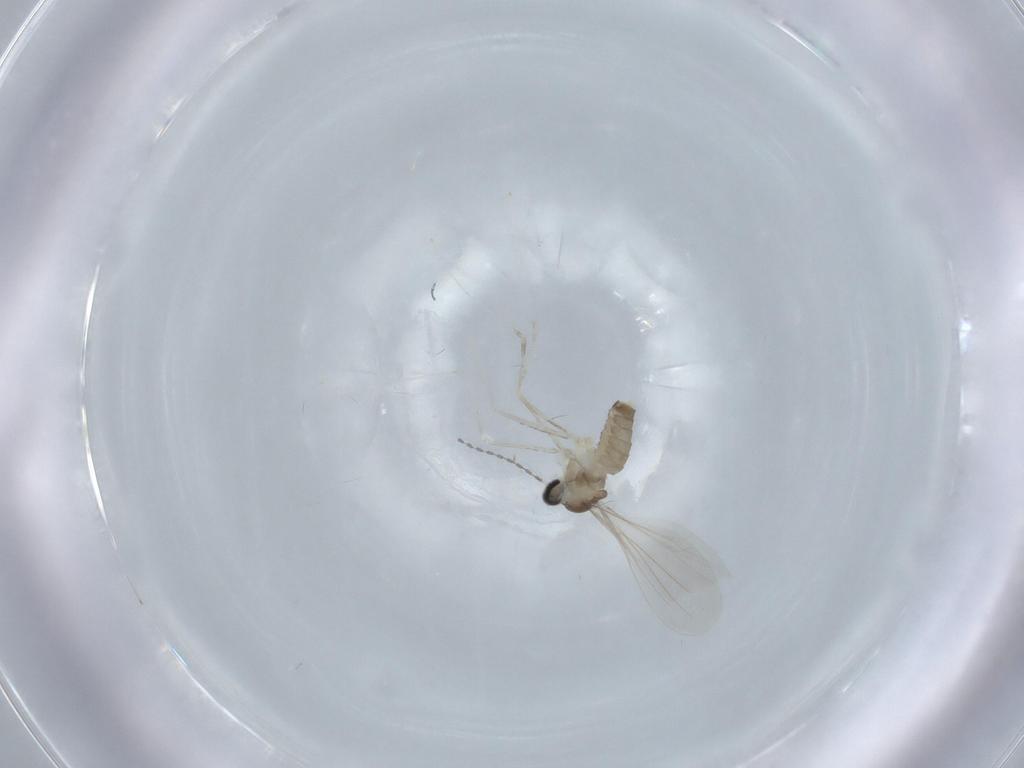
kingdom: Animalia
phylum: Arthropoda
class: Insecta
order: Diptera
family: Cecidomyiidae
